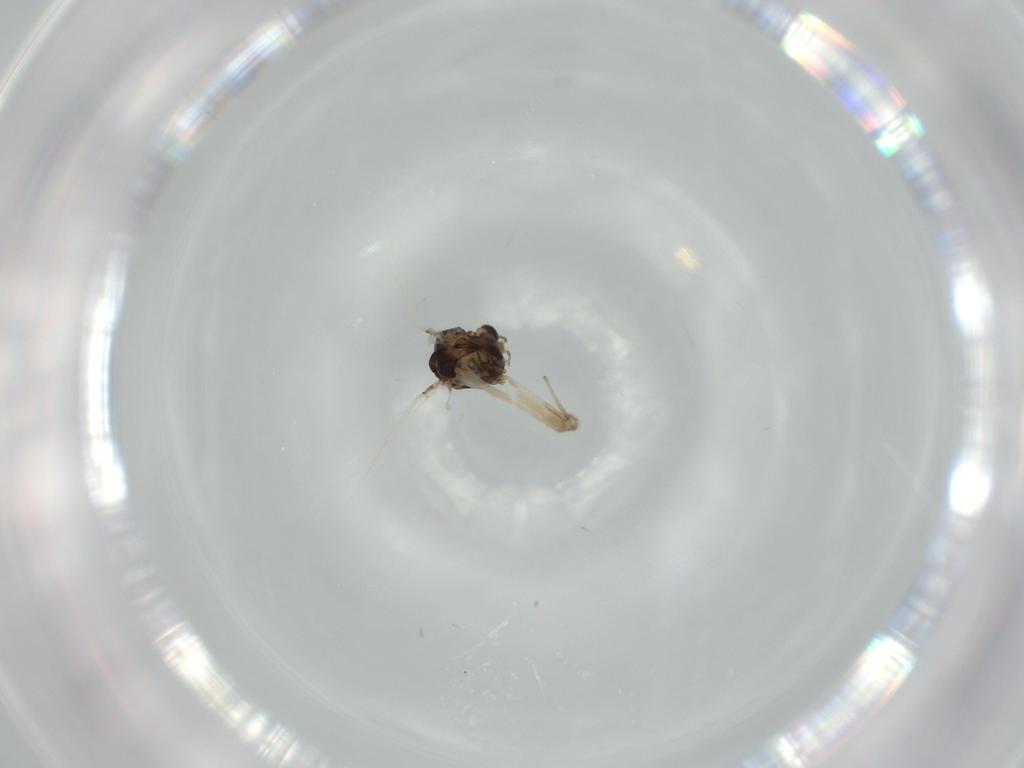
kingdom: Animalia
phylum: Arthropoda
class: Insecta
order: Diptera
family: Chironomidae
